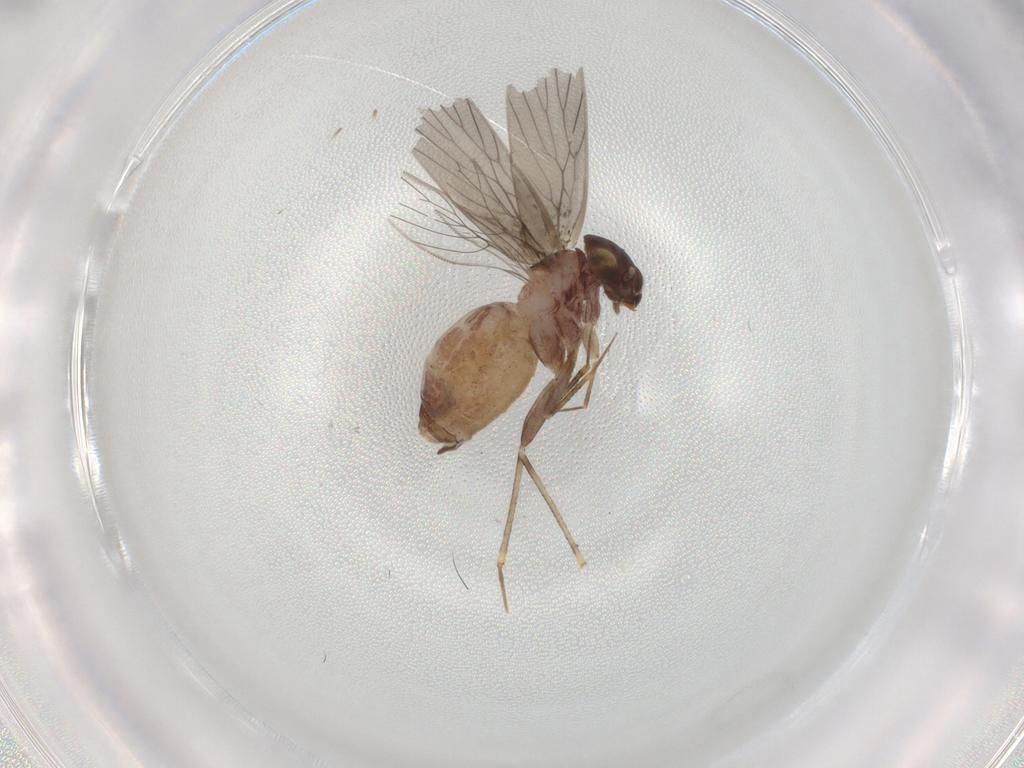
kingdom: Animalia
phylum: Arthropoda
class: Insecta
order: Psocodea
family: Lepidopsocidae
